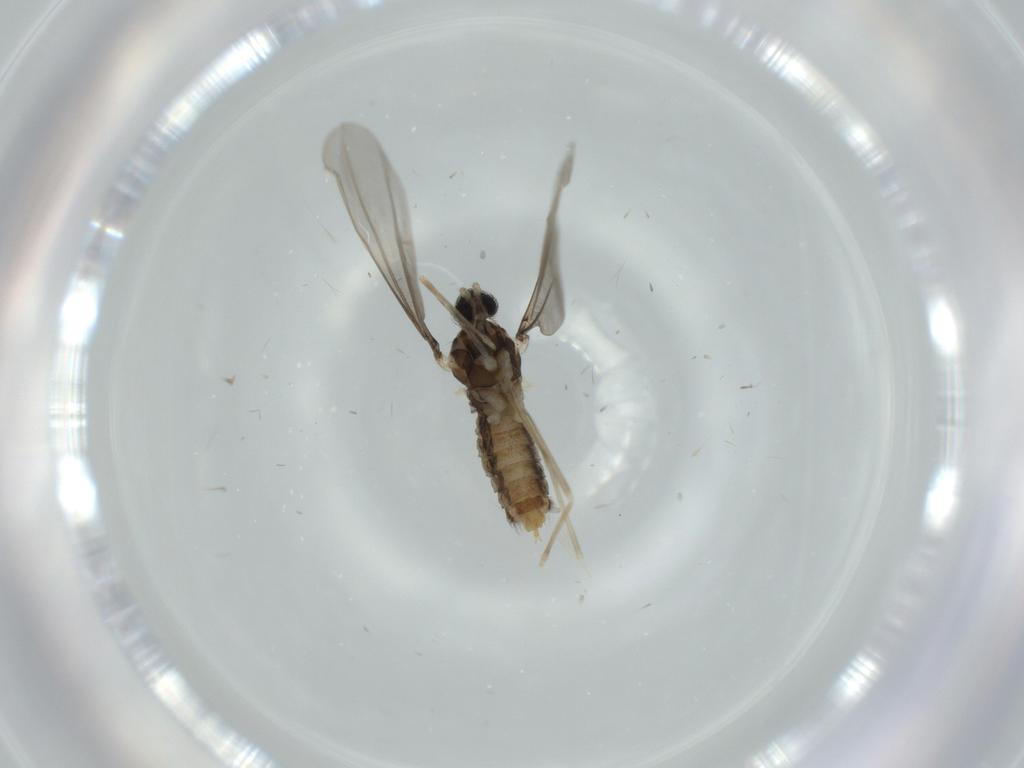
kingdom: Animalia
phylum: Arthropoda
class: Insecta
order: Diptera
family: Cecidomyiidae
